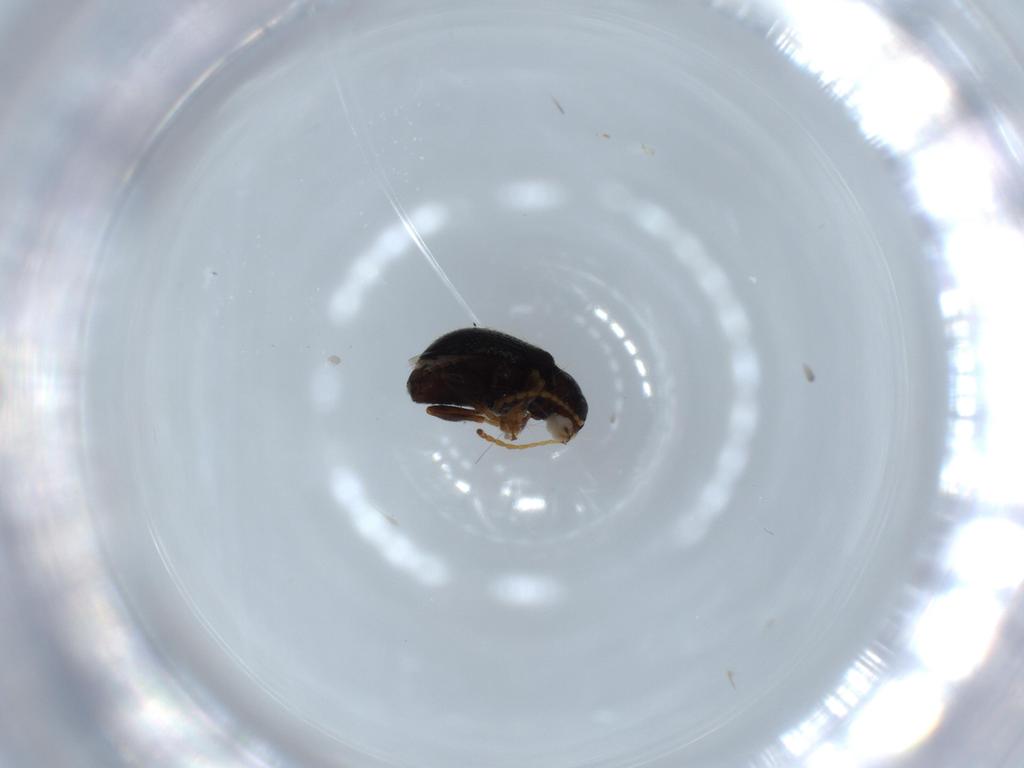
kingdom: Animalia
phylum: Arthropoda
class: Insecta
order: Coleoptera
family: Chrysomelidae
